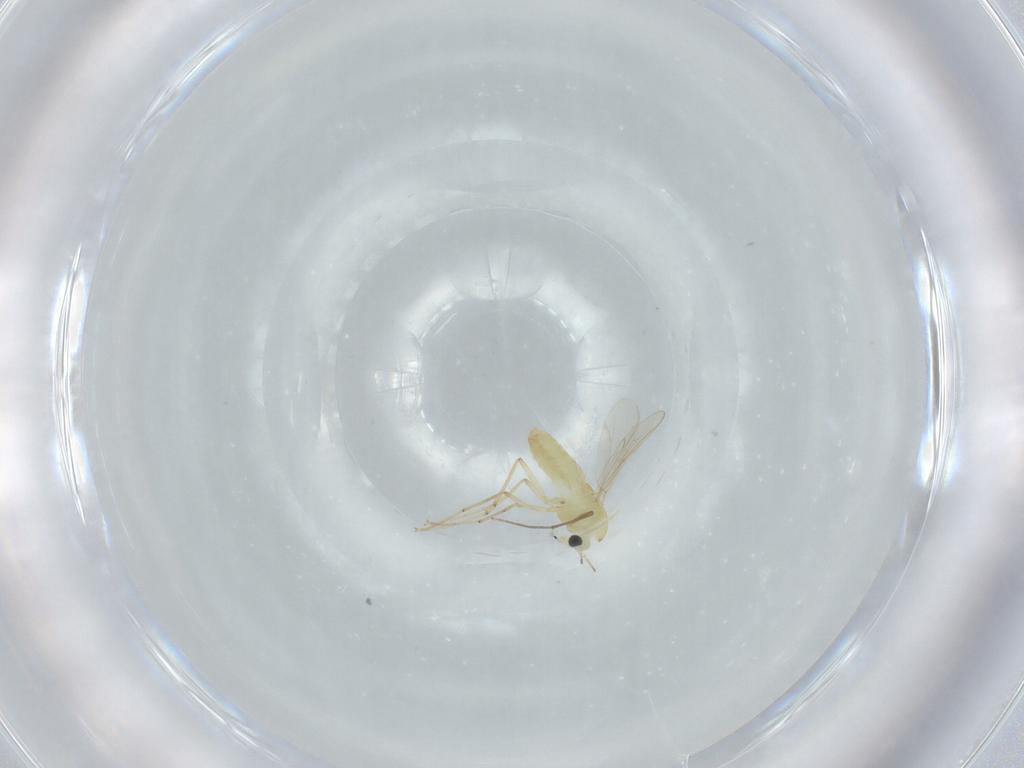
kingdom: Animalia
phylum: Arthropoda
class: Insecta
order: Diptera
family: Chironomidae
